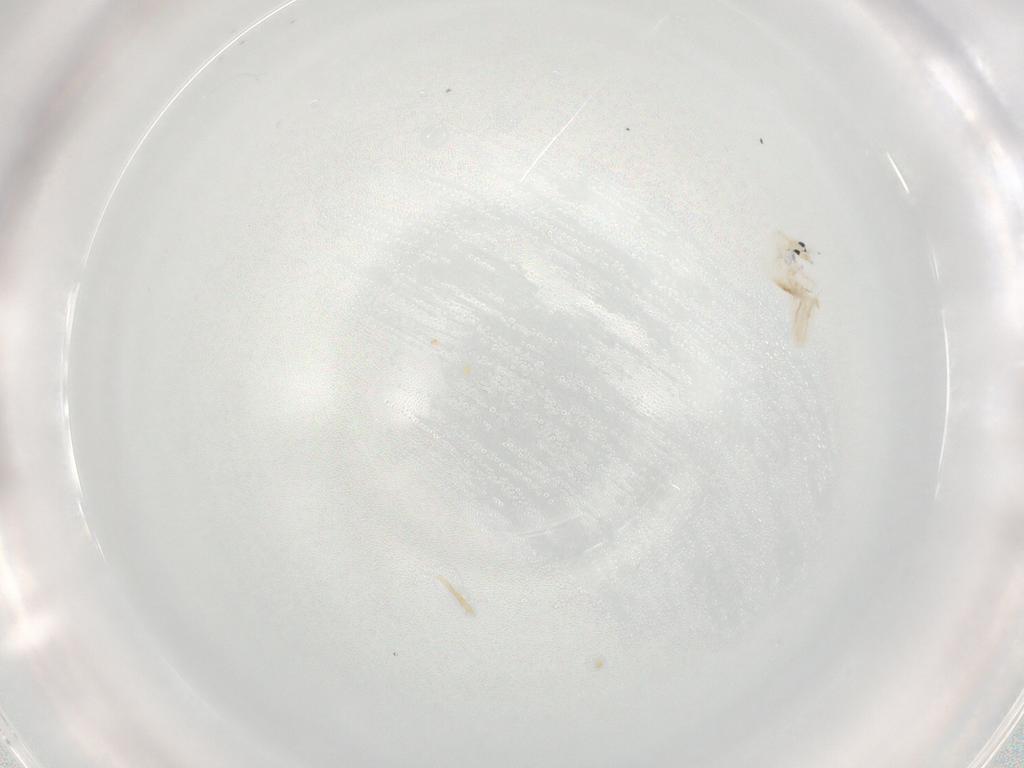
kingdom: Animalia
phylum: Arthropoda
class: Collembola
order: Entomobryomorpha
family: Entomobryidae
